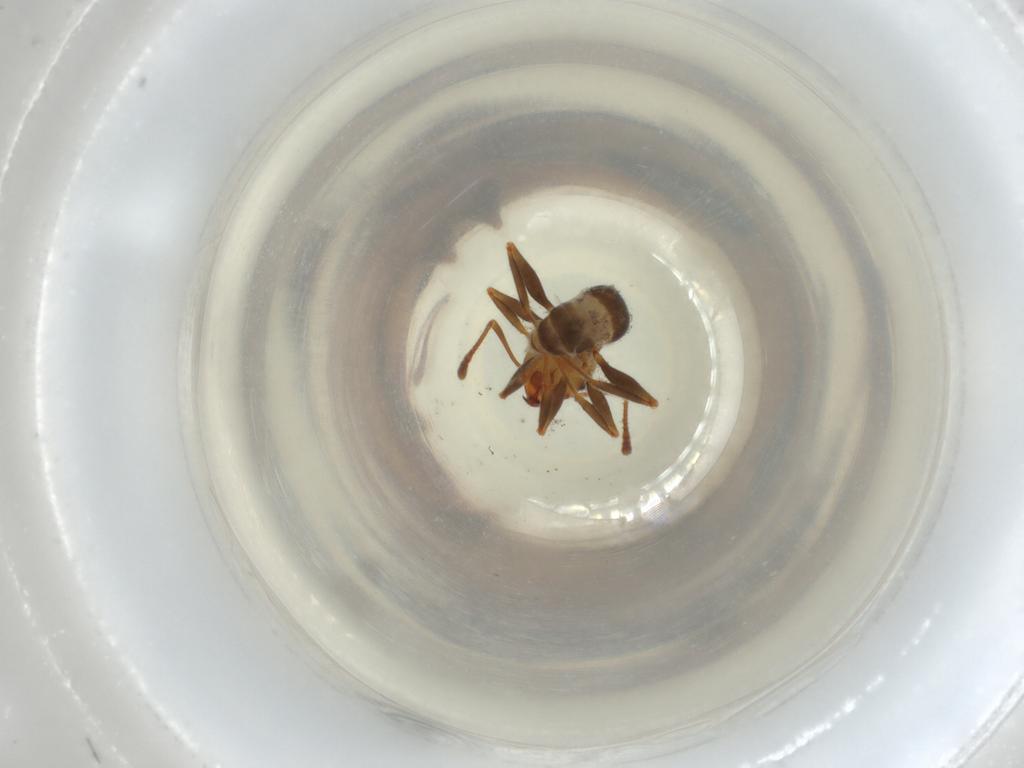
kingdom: Animalia
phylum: Arthropoda
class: Insecta
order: Hymenoptera
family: Formicidae
